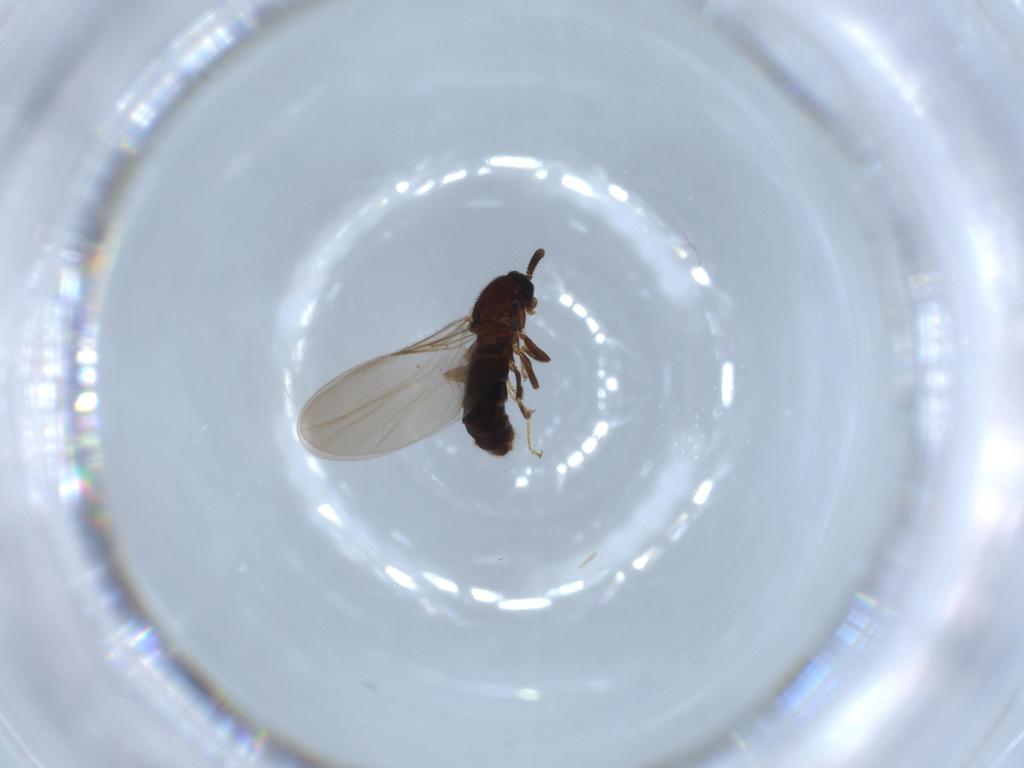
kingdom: Animalia
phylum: Arthropoda
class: Insecta
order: Diptera
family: Scatopsidae
